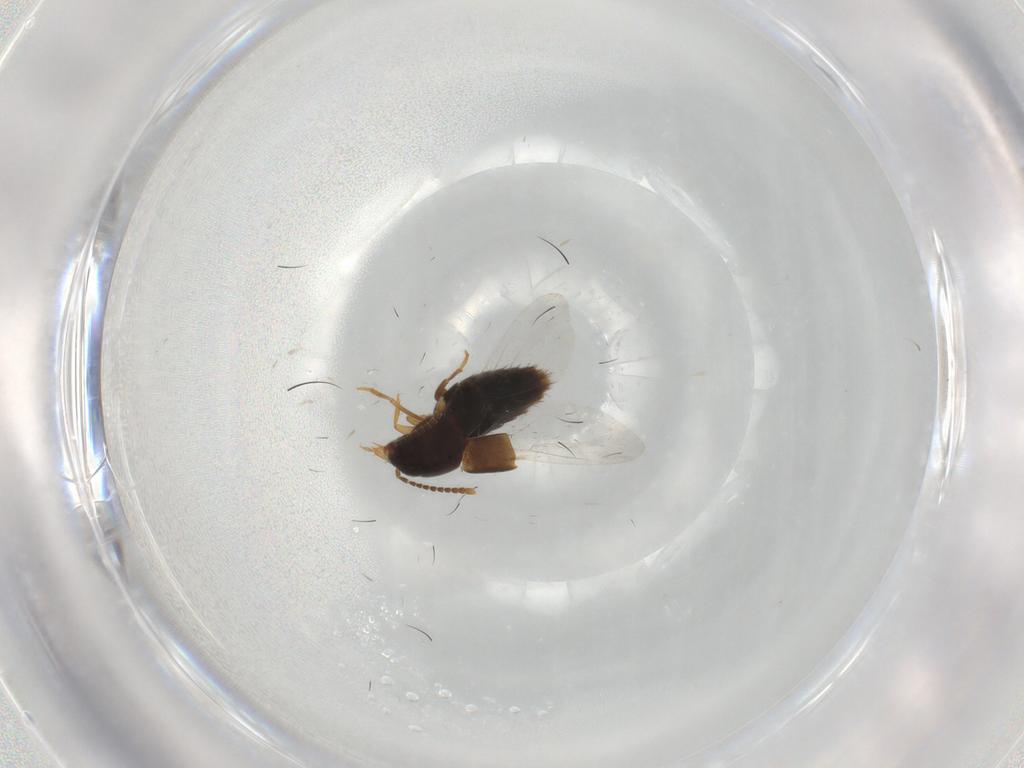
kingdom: Animalia
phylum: Arthropoda
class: Insecta
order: Coleoptera
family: Staphylinidae
